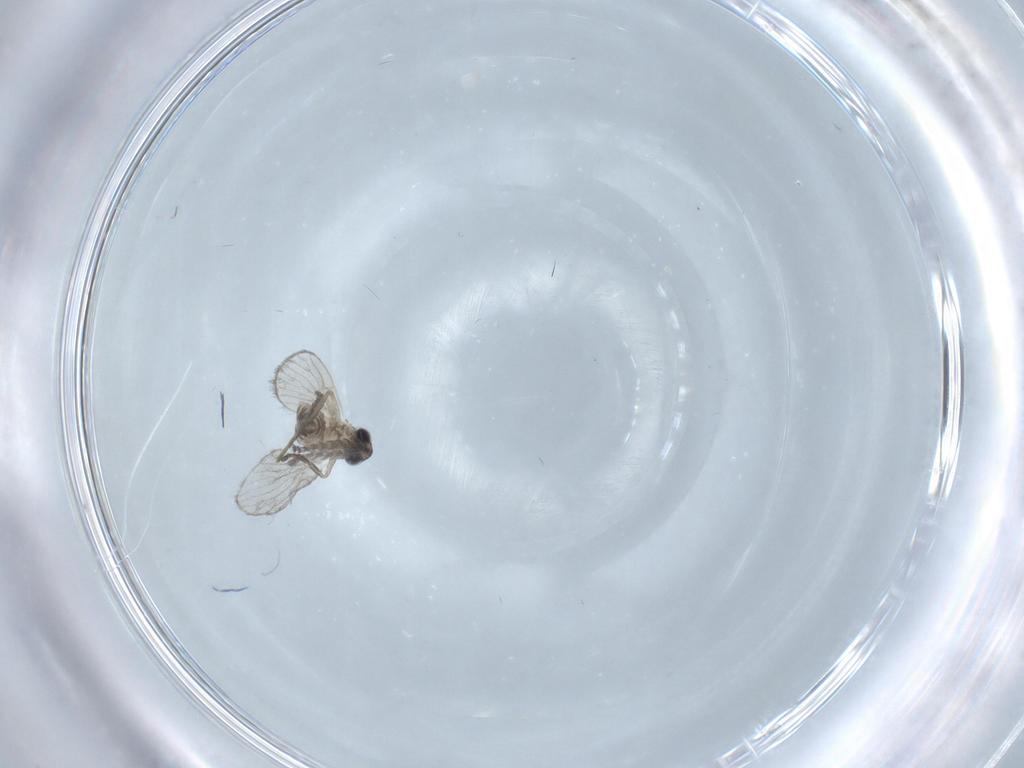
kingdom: Animalia
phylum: Arthropoda
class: Insecta
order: Diptera
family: Psychodidae
